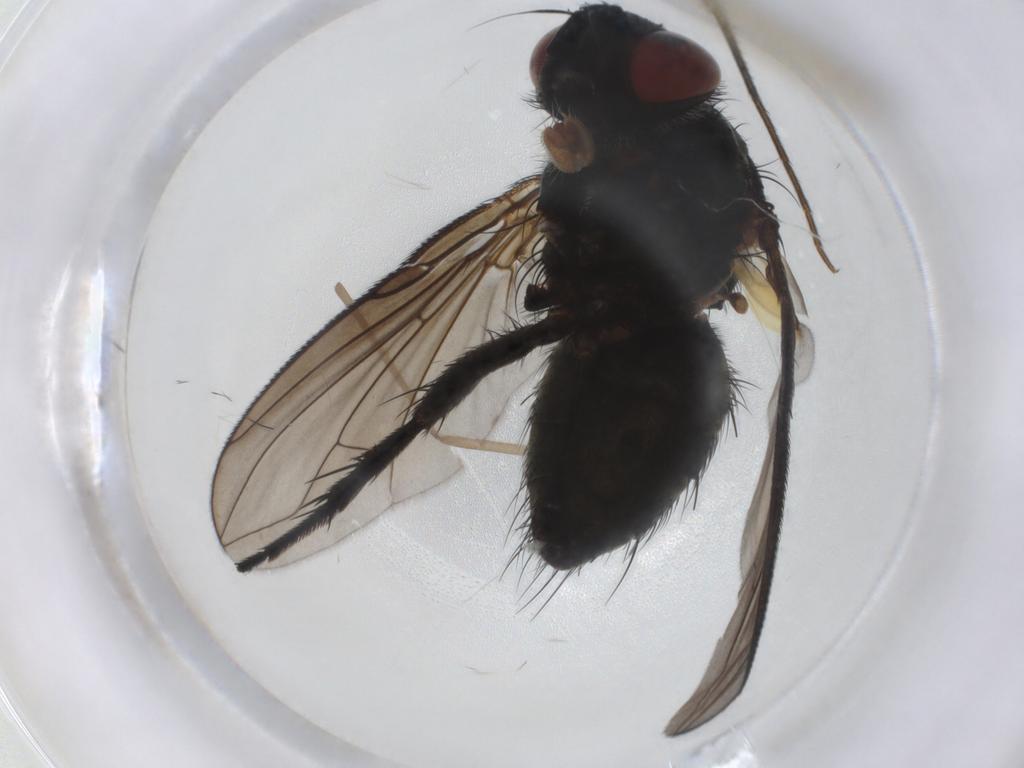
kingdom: Animalia
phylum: Arthropoda
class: Insecta
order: Diptera
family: Tachinidae
